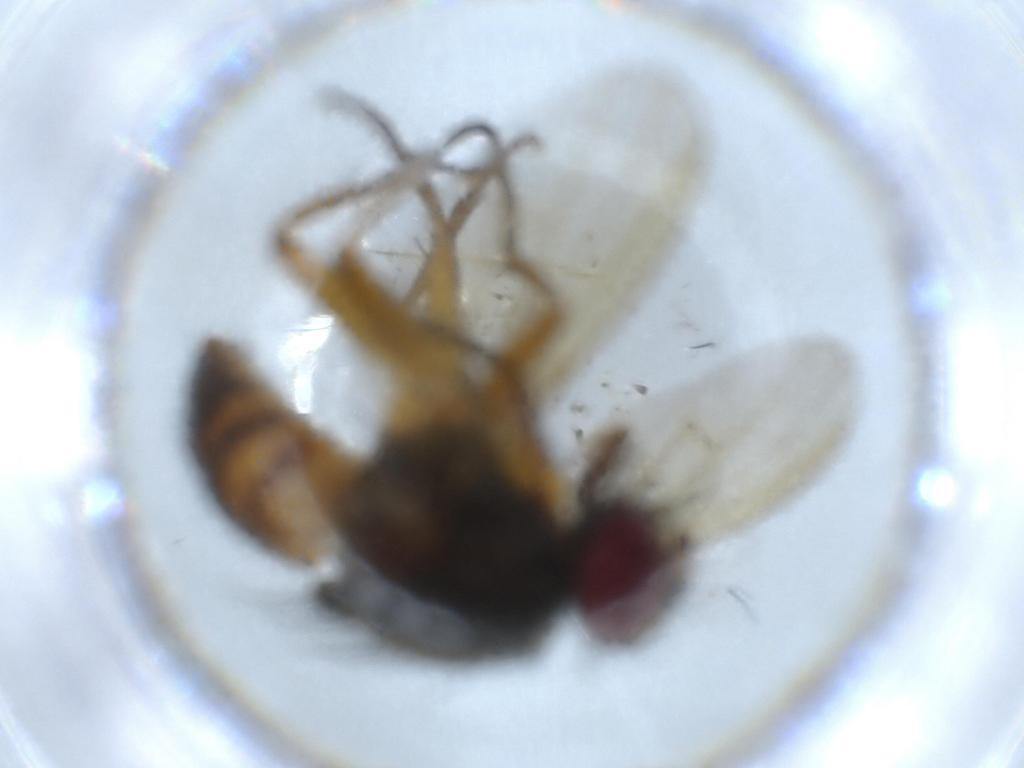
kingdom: Animalia
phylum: Arthropoda
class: Insecta
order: Diptera
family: Muscidae
